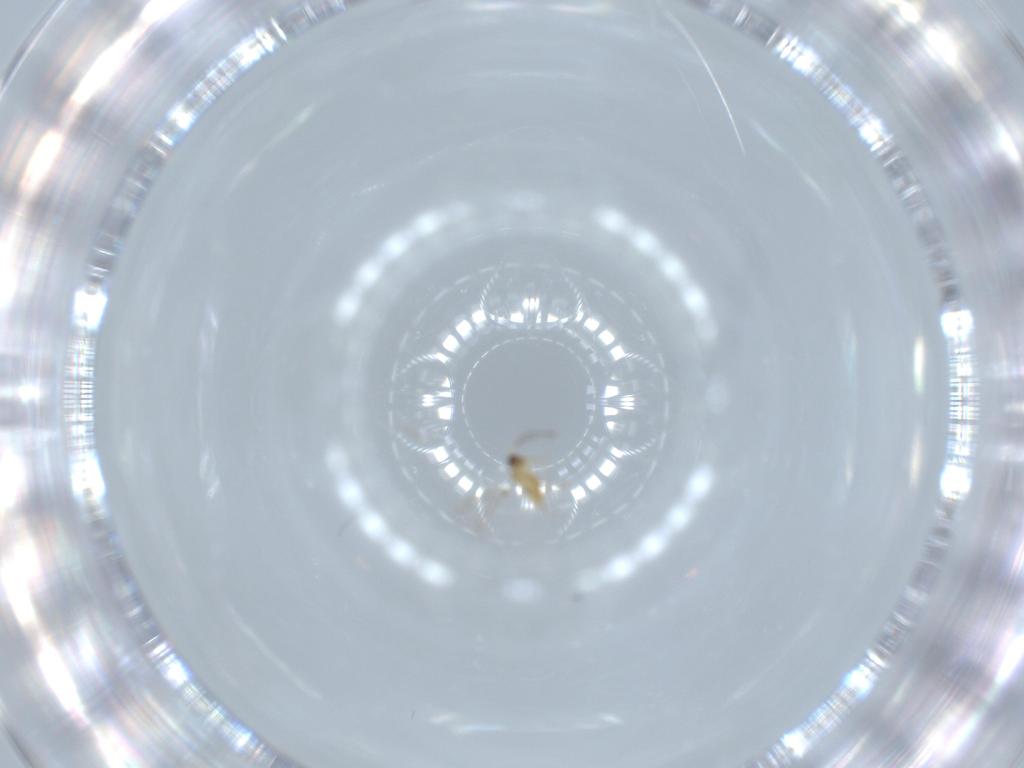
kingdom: Animalia
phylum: Arthropoda
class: Insecta
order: Hymenoptera
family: Mymaridae
